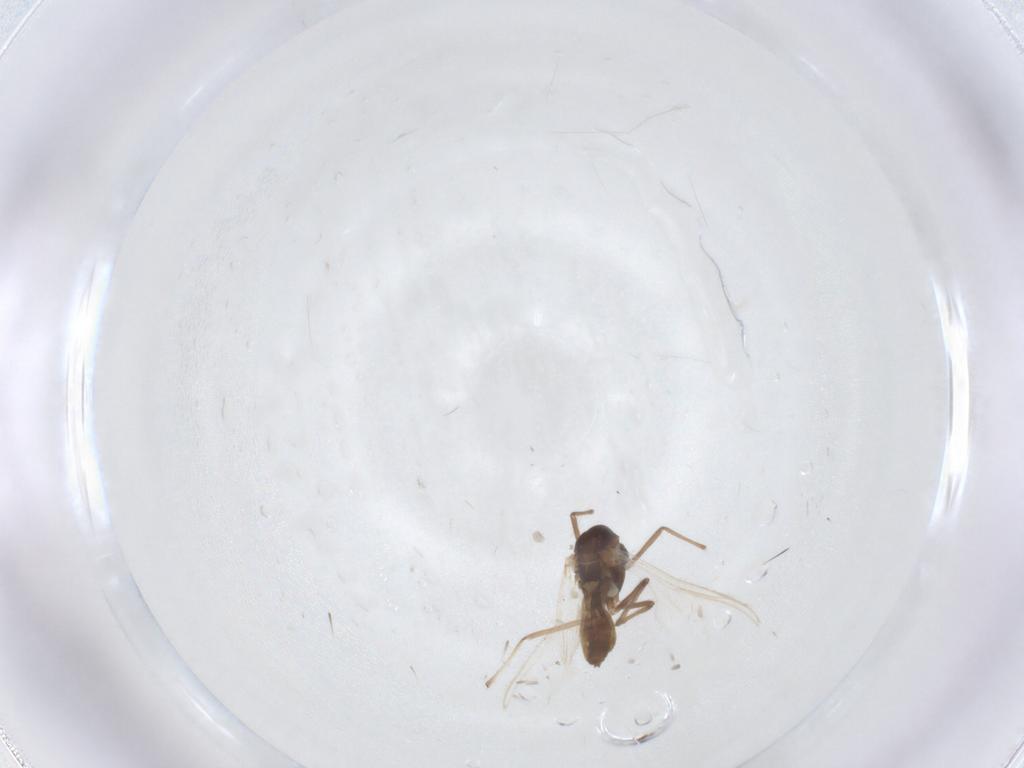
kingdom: Animalia
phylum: Arthropoda
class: Insecta
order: Diptera
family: Chironomidae
